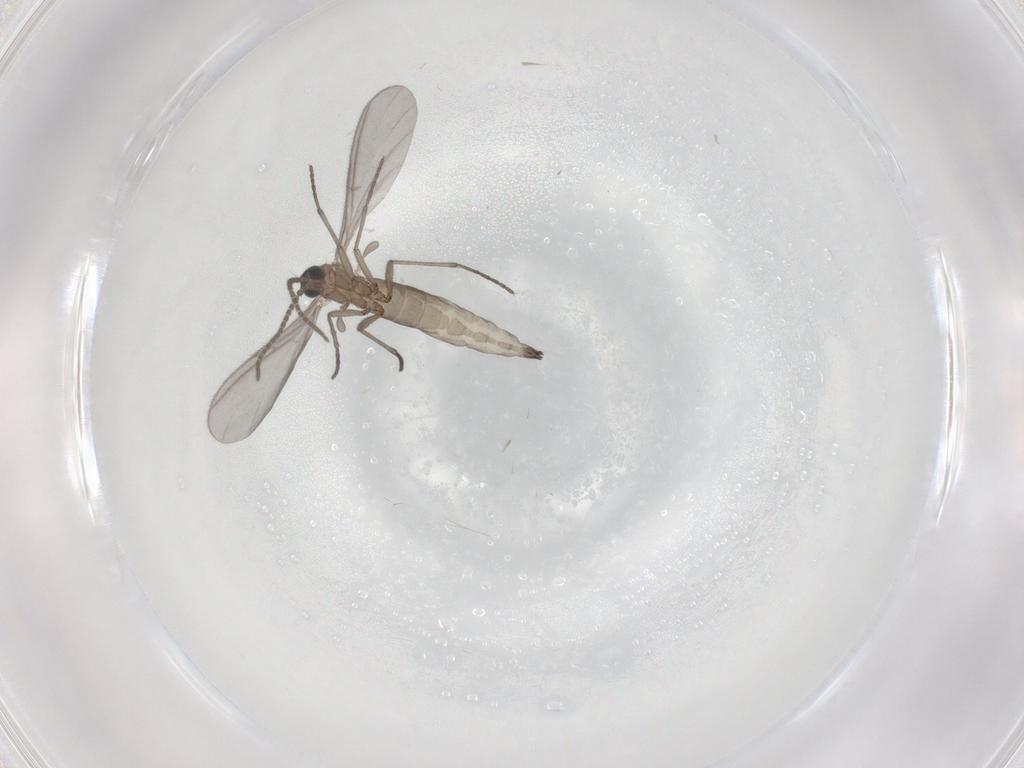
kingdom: Animalia
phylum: Arthropoda
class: Insecta
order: Diptera
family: Sciaridae
